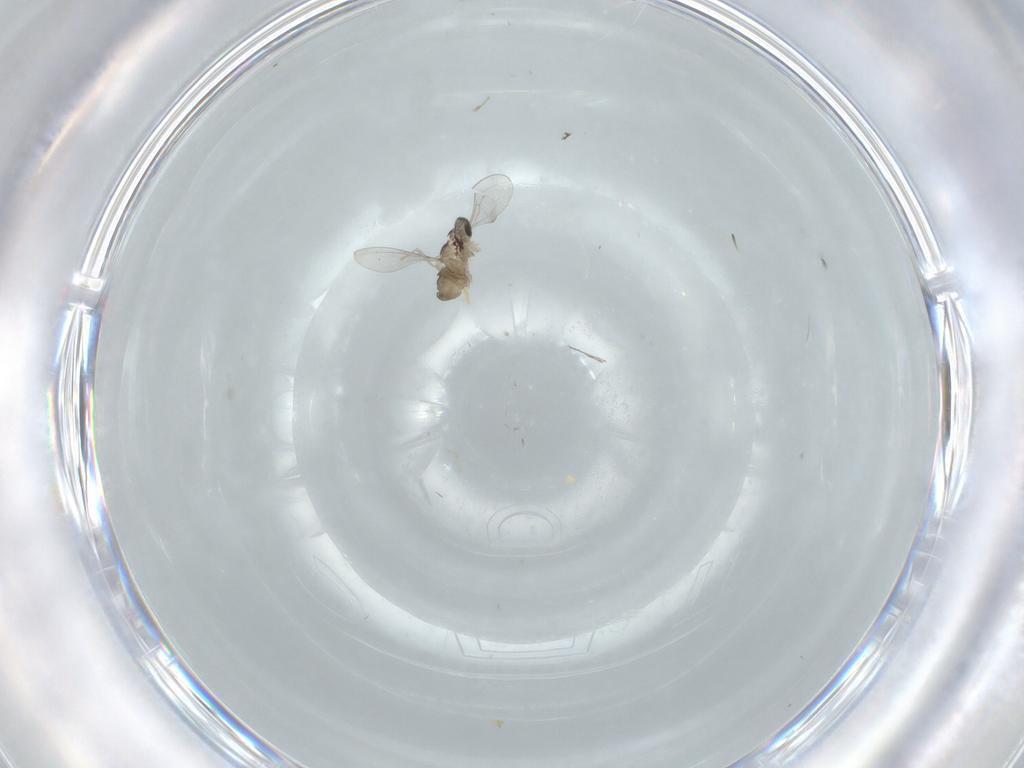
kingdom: Animalia
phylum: Arthropoda
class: Insecta
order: Diptera
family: Cecidomyiidae
